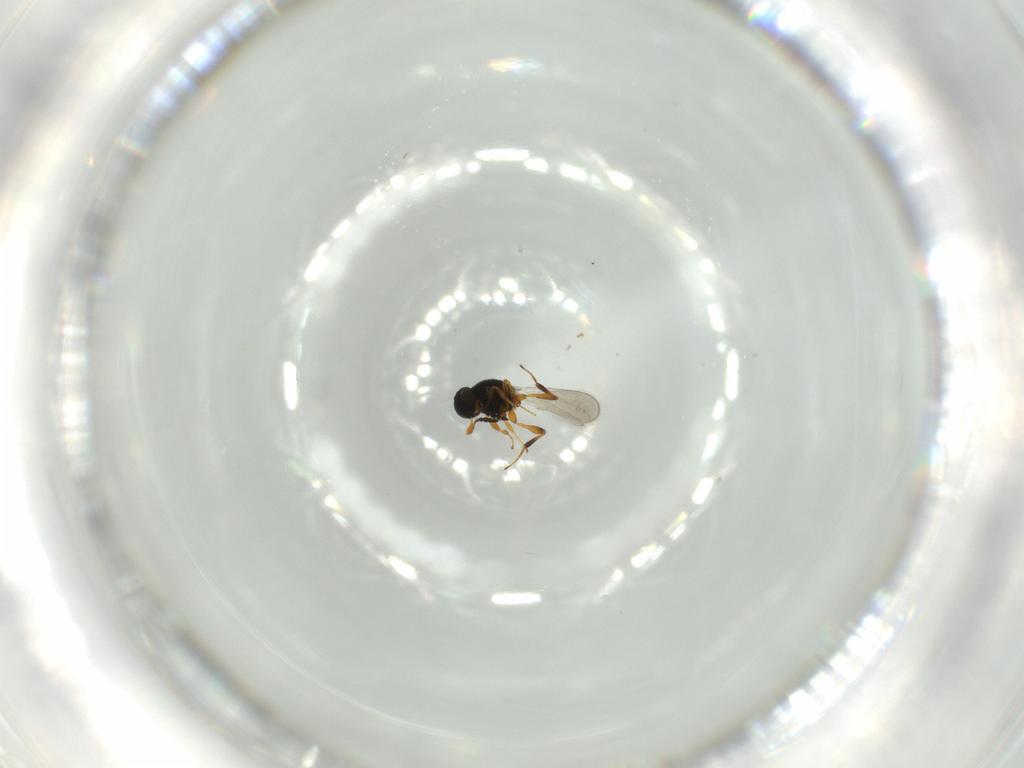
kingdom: Animalia
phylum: Arthropoda
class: Insecta
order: Hymenoptera
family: Platygastridae
